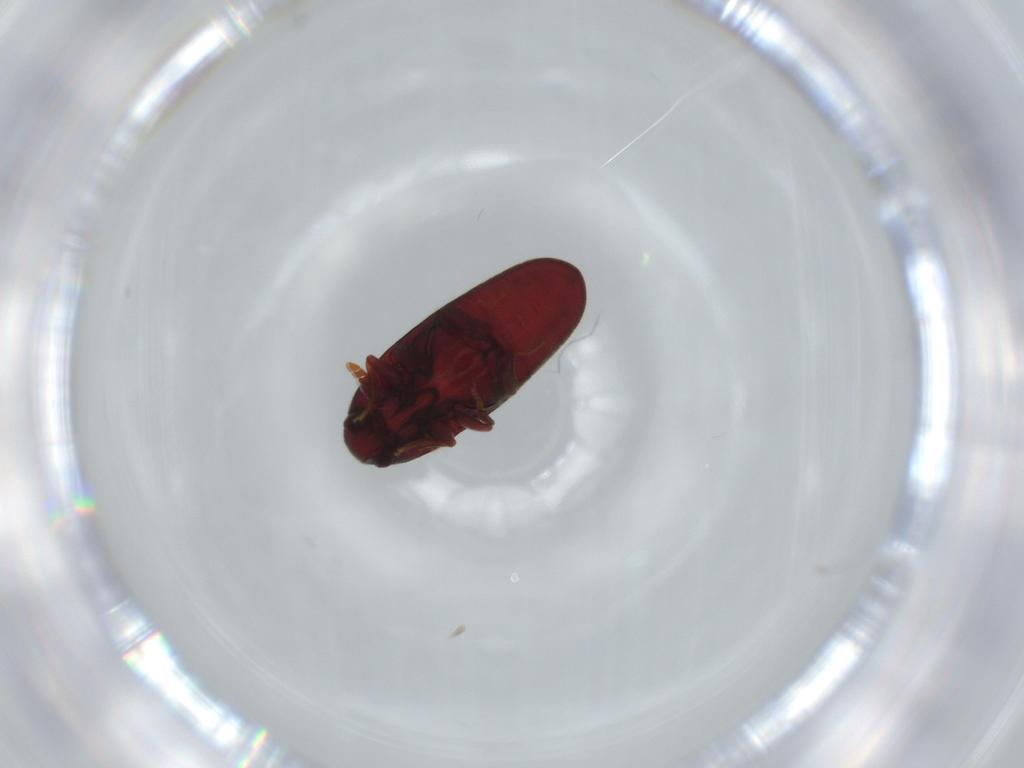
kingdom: Animalia
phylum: Arthropoda
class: Insecta
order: Coleoptera
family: Throscidae
